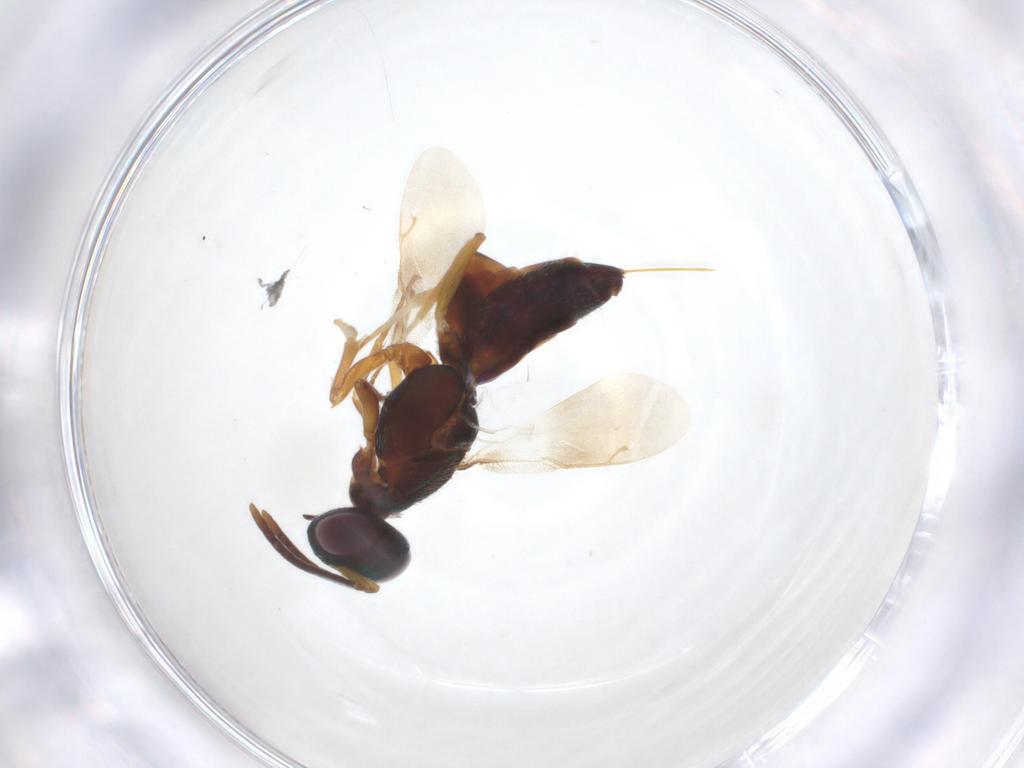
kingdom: Animalia
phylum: Arthropoda
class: Insecta
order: Hymenoptera
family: Eupelmidae
